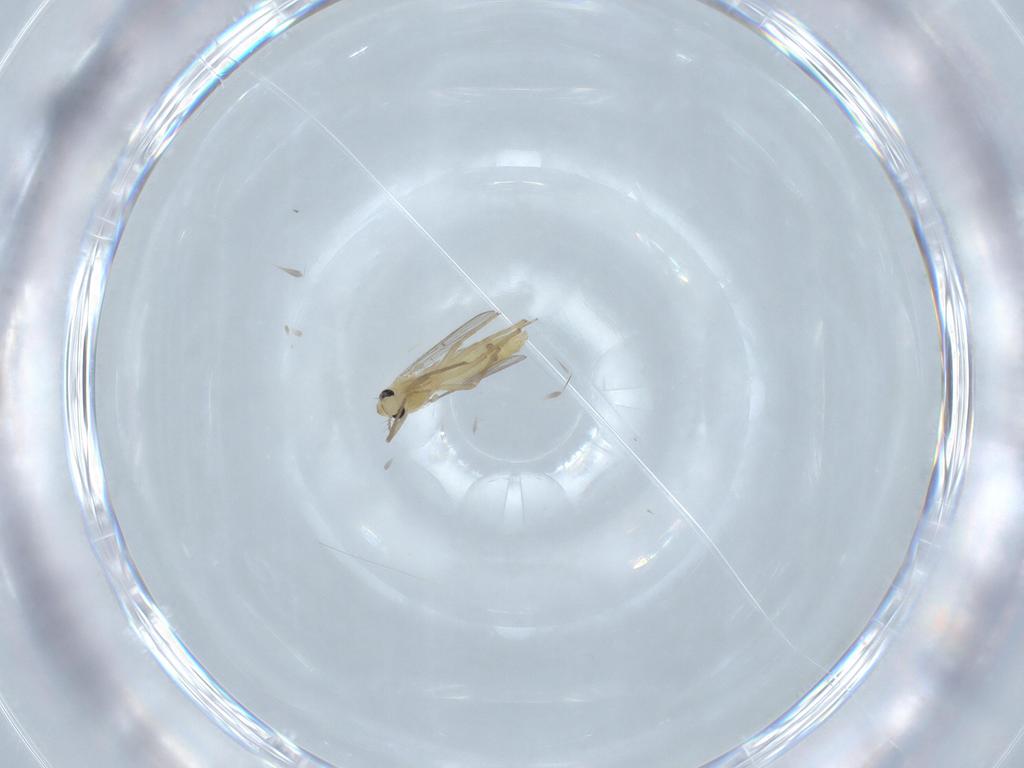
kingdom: Animalia
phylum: Arthropoda
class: Insecta
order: Diptera
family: Chironomidae
